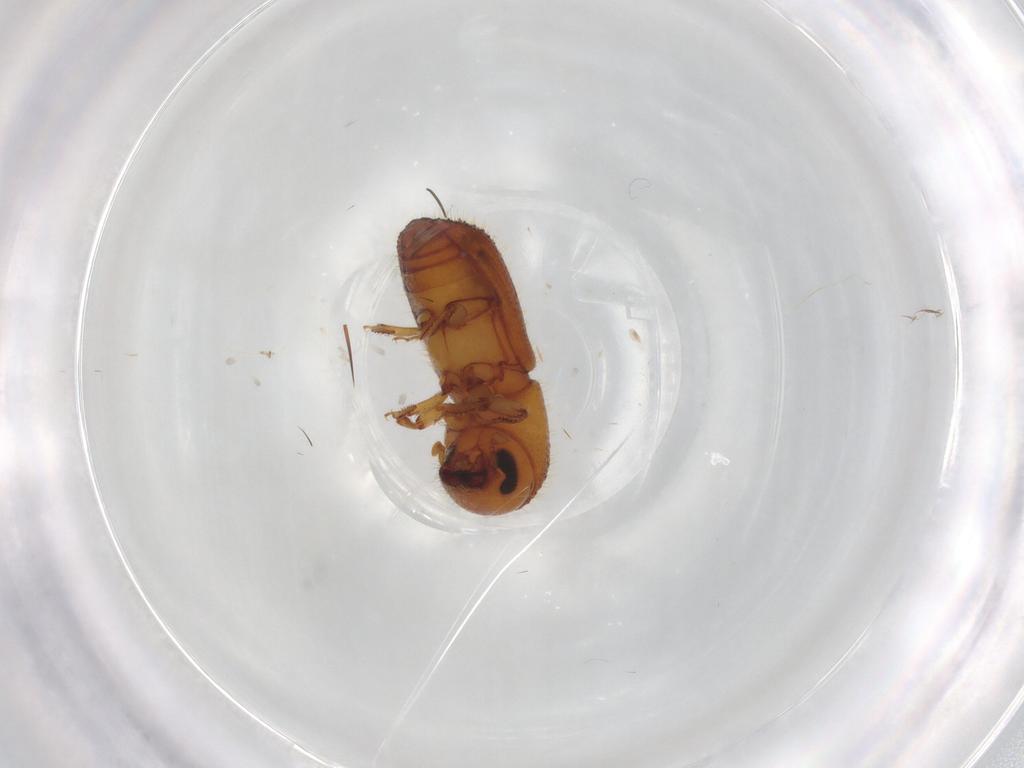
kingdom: Animalia
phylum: Arthropoda
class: Insecta
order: Coleoptera
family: Curculionidae
